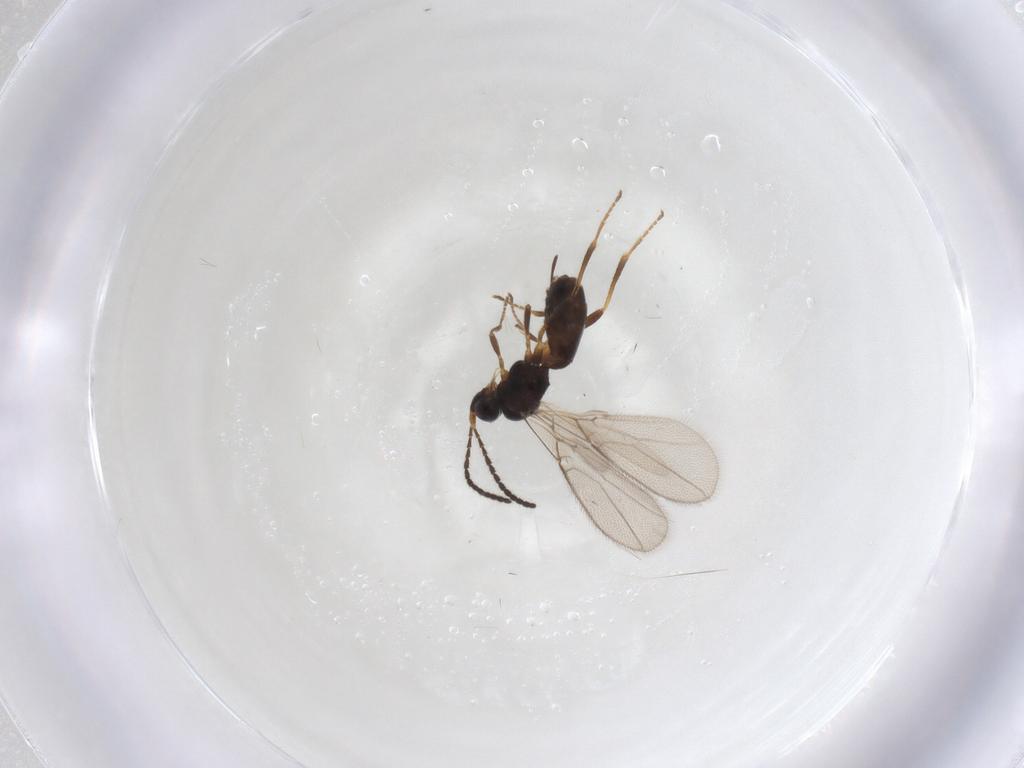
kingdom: Animalia
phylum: Arthropoda
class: Insecta
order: Hymenoptera
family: Braconidae
